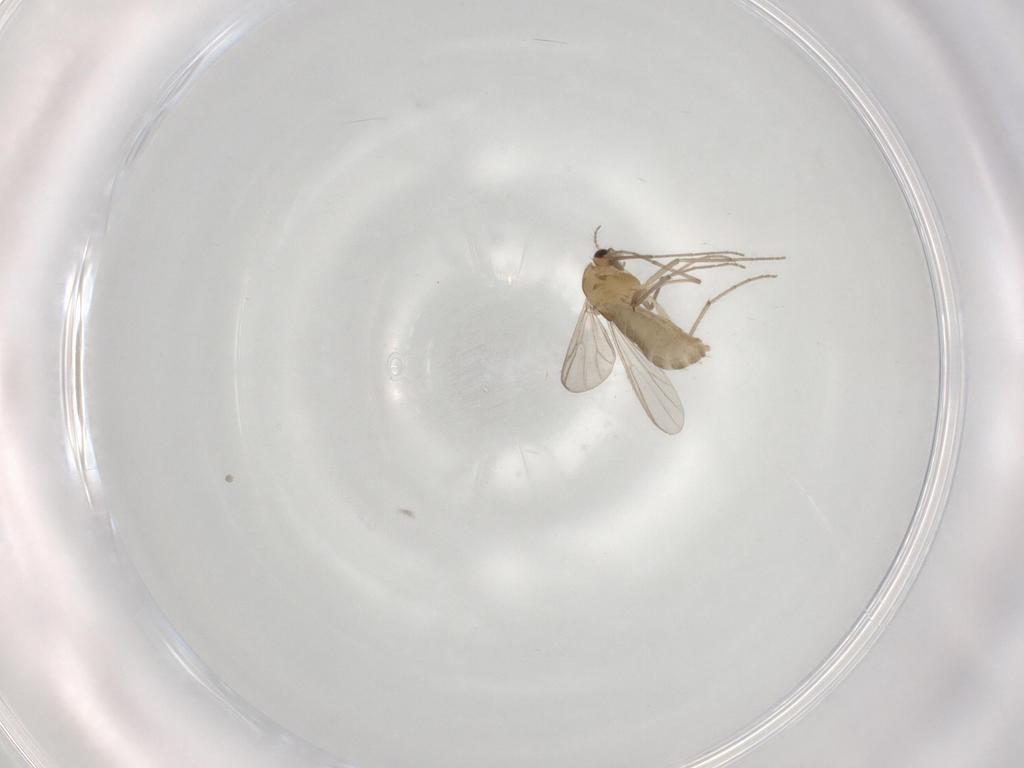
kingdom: Animalia
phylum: Arthropoda
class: Insecta
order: Diptera
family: Chironomidae
